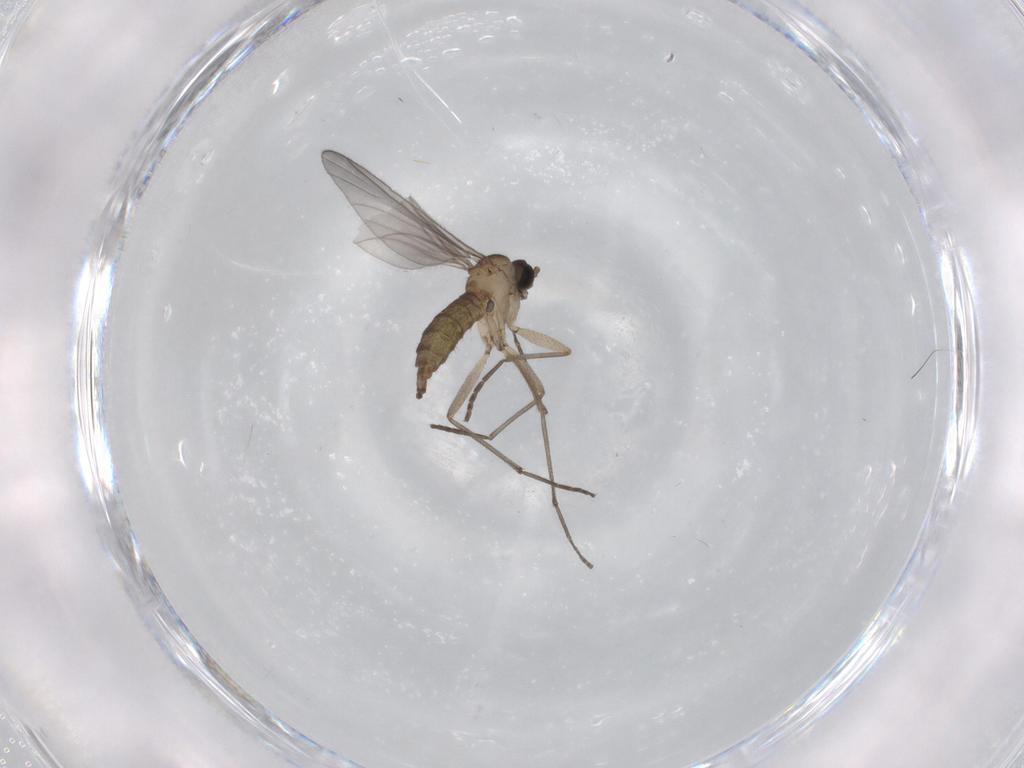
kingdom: Animalia
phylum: Arthropoda
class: Insecta
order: Diptera
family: Sciaridae
